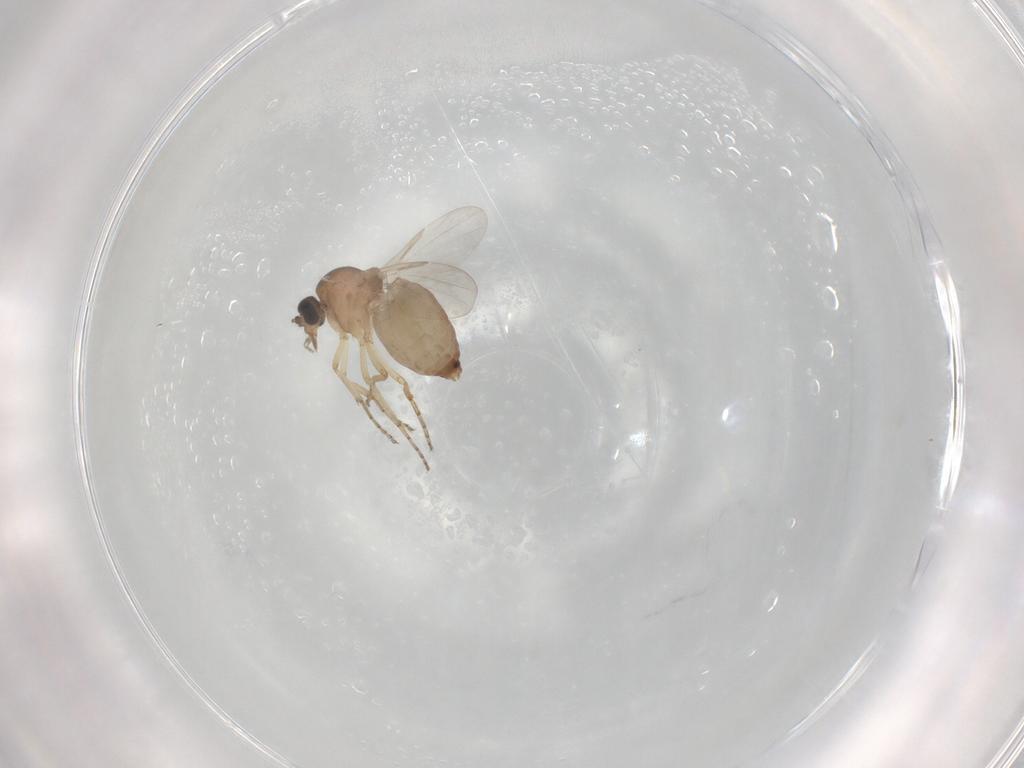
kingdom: Animalia
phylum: Arthropoda
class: Insecta
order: Diptera
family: Ceratopogonidae
